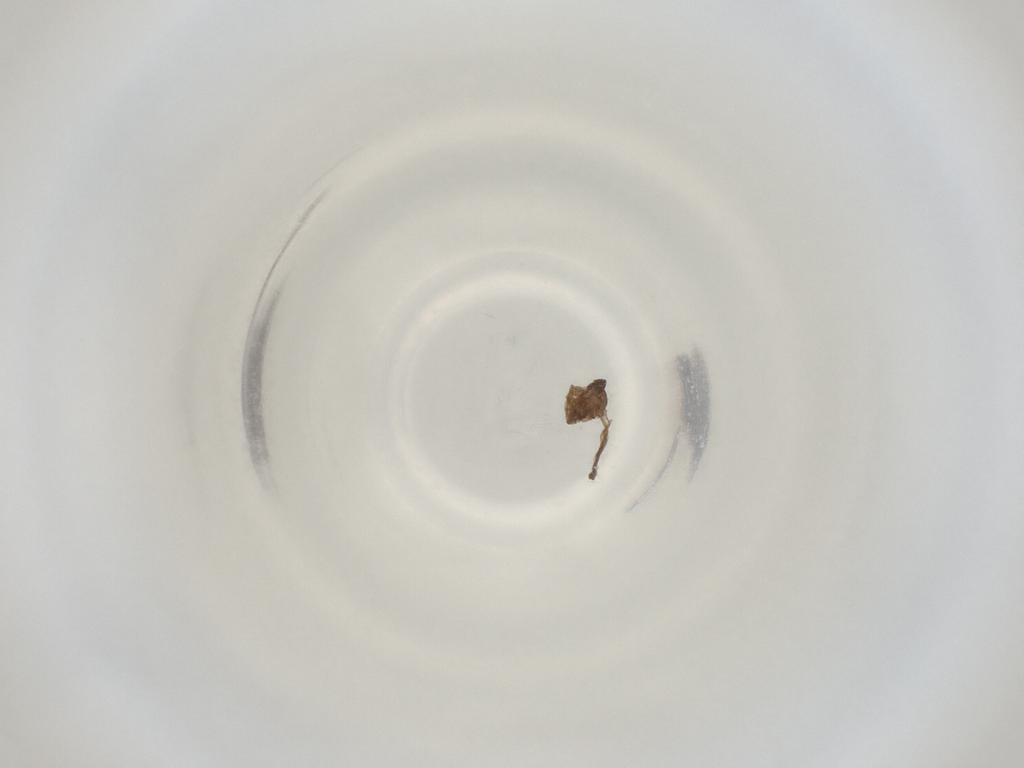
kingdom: Animalia
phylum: Arthropoda
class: Insecta
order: Diptera
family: Cecidomyiidae
